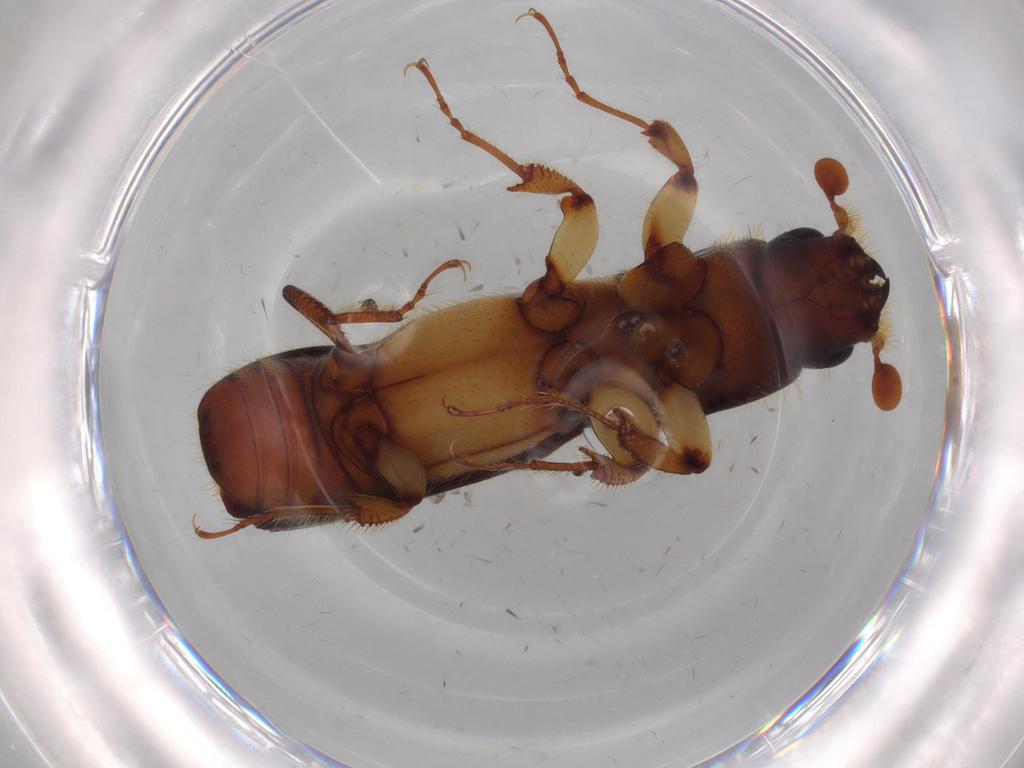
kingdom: Animalia
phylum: Arthropoda
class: Insecta
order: Coleoptera
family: Curculionidae
